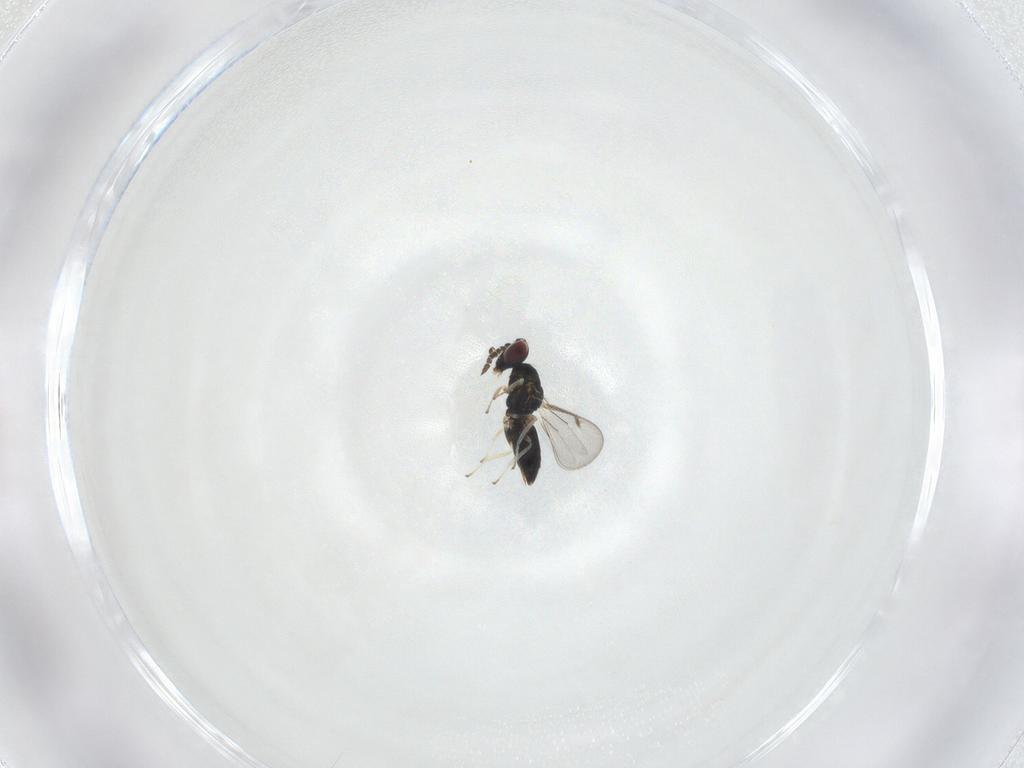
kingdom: Animalia
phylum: Arthropoda
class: Insecta
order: Hymenoptera
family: Eulophidae
